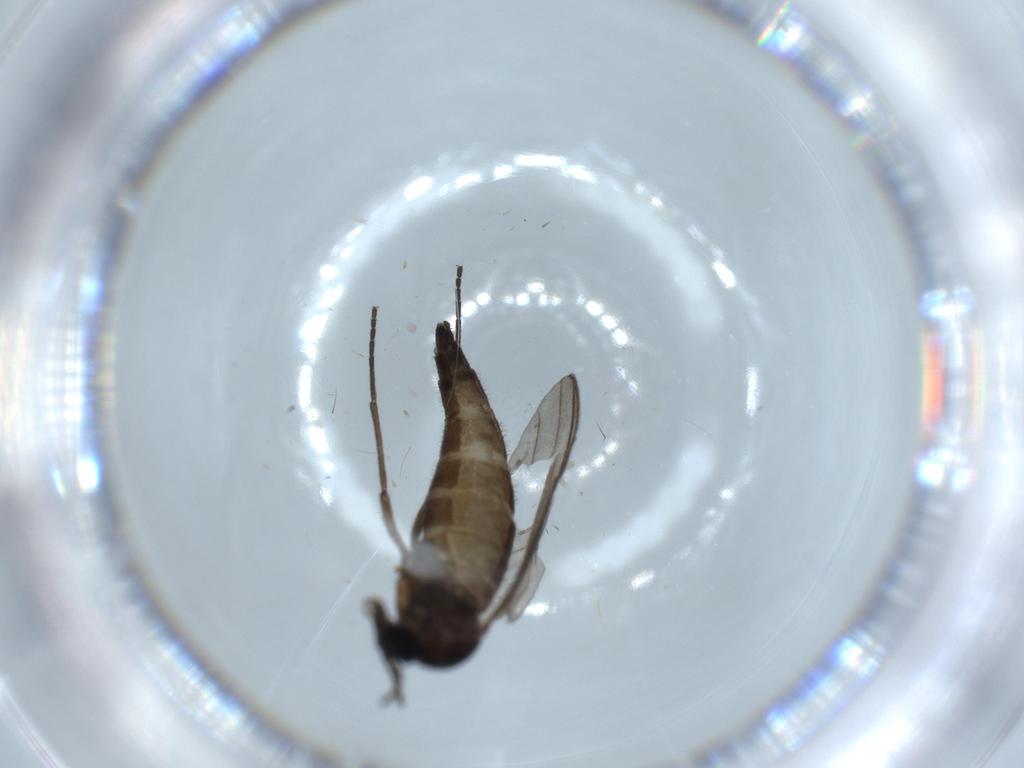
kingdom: Animalia
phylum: Arthropoda
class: Insecta
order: Diptera
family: Sciaridae
